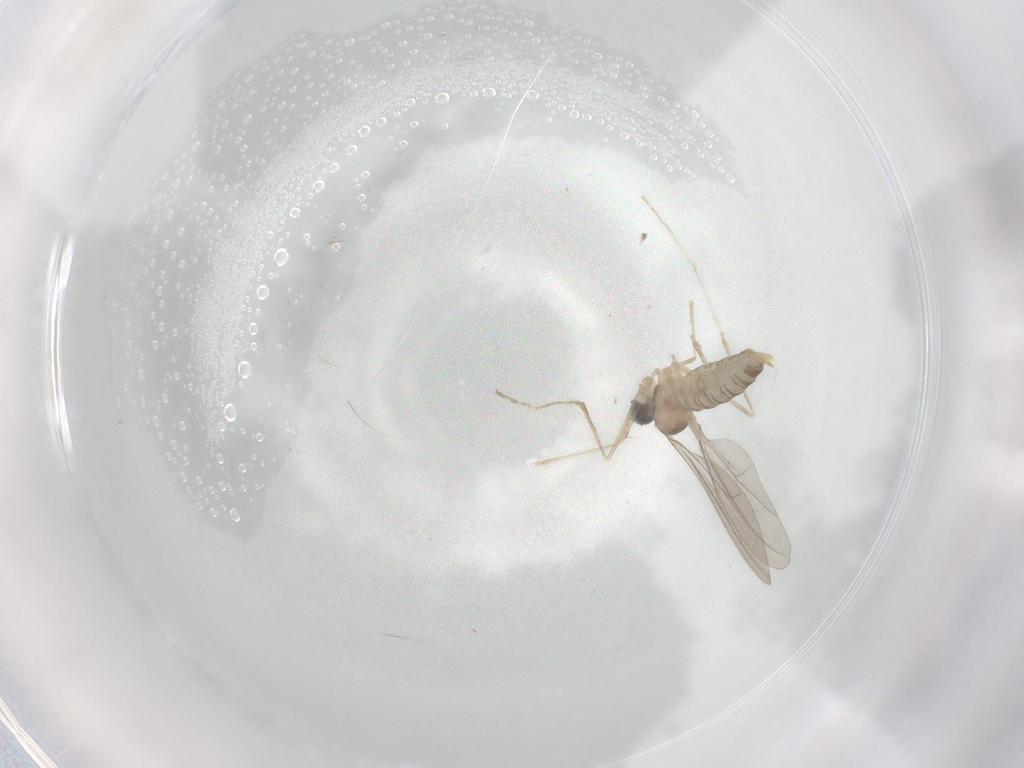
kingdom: Animalia
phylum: Arthropoda
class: Insecta
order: Diptera
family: Cecidomyiidae
